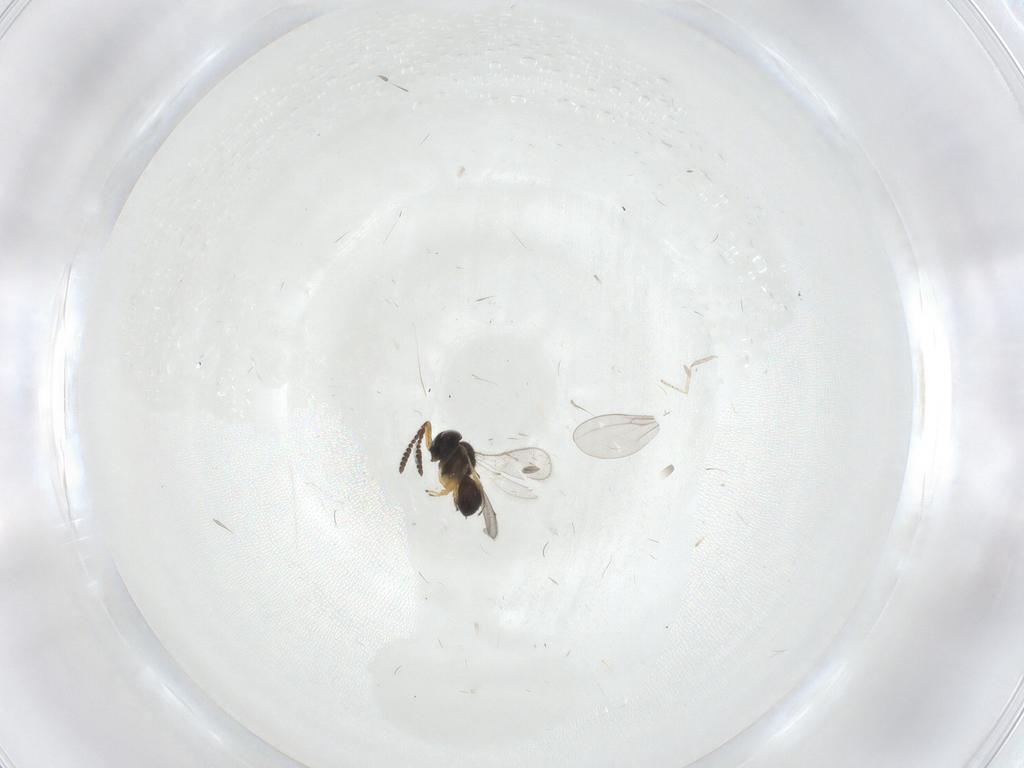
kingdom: Animalia
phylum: Arthropoda
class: Insecta
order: Hymenoptera
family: Scelionidae
